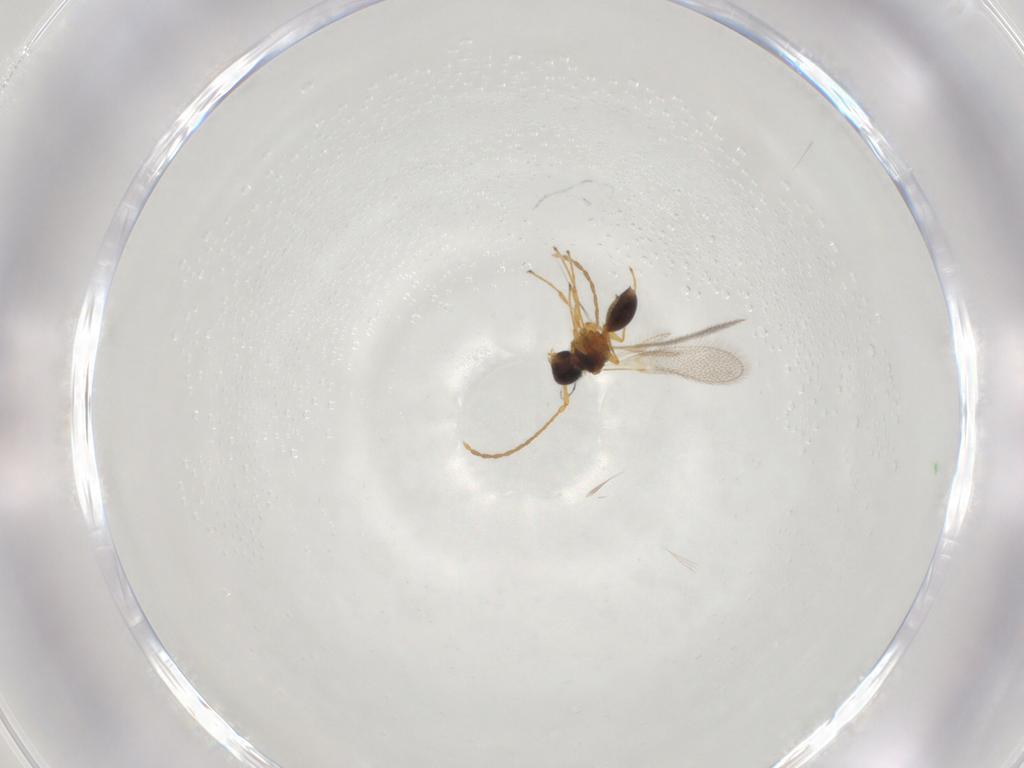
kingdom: Animalia
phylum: Arthropoda
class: Insecta
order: Hymenoptera
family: Diapriidae
